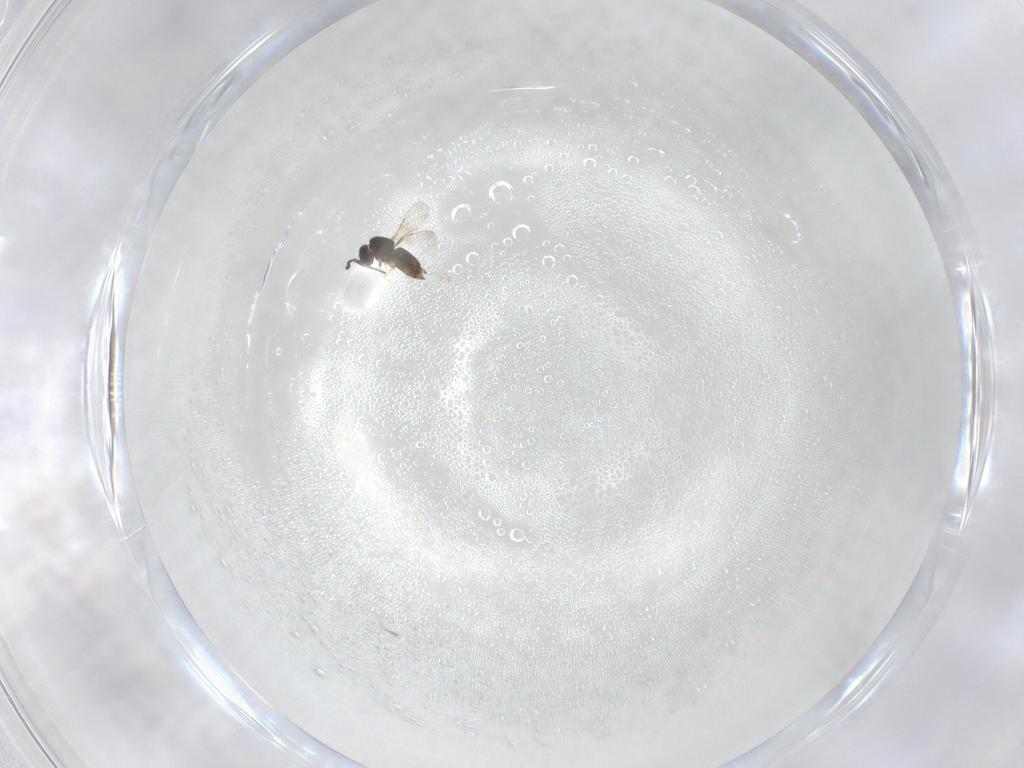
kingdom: Animalia
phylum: Arthropoda
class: Insecta
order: Hymenoptera
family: Ceraphronidae
